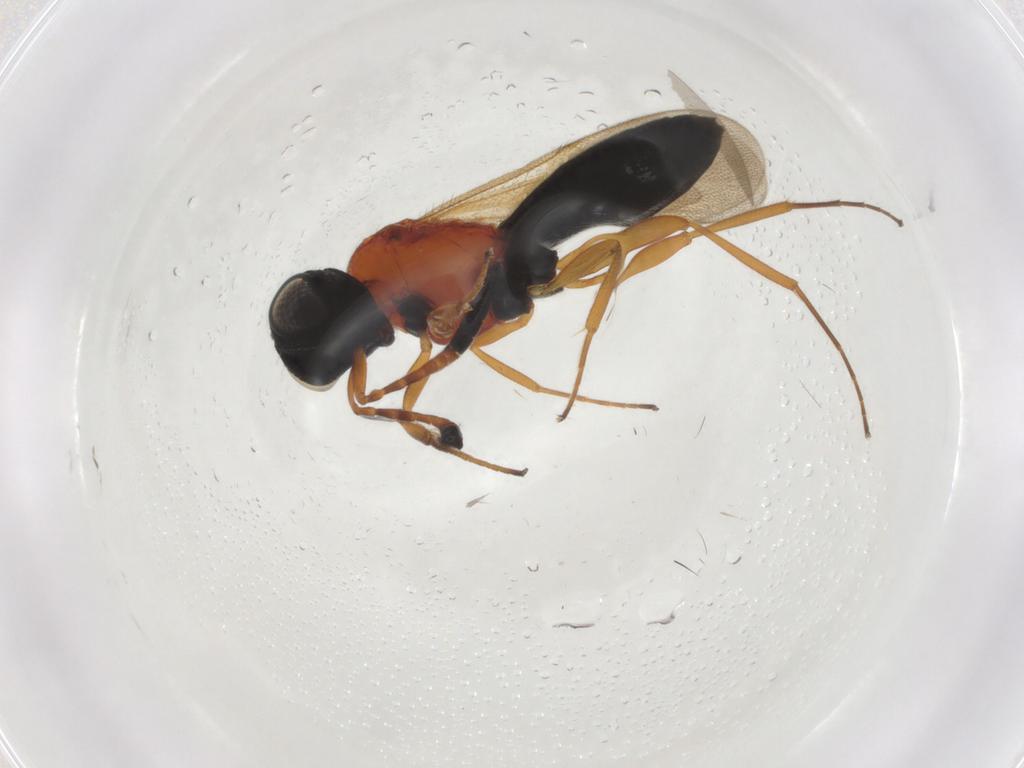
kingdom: Animalia
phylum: Arthropoda
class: Insecta
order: Hymenoptera
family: Scelionidae
